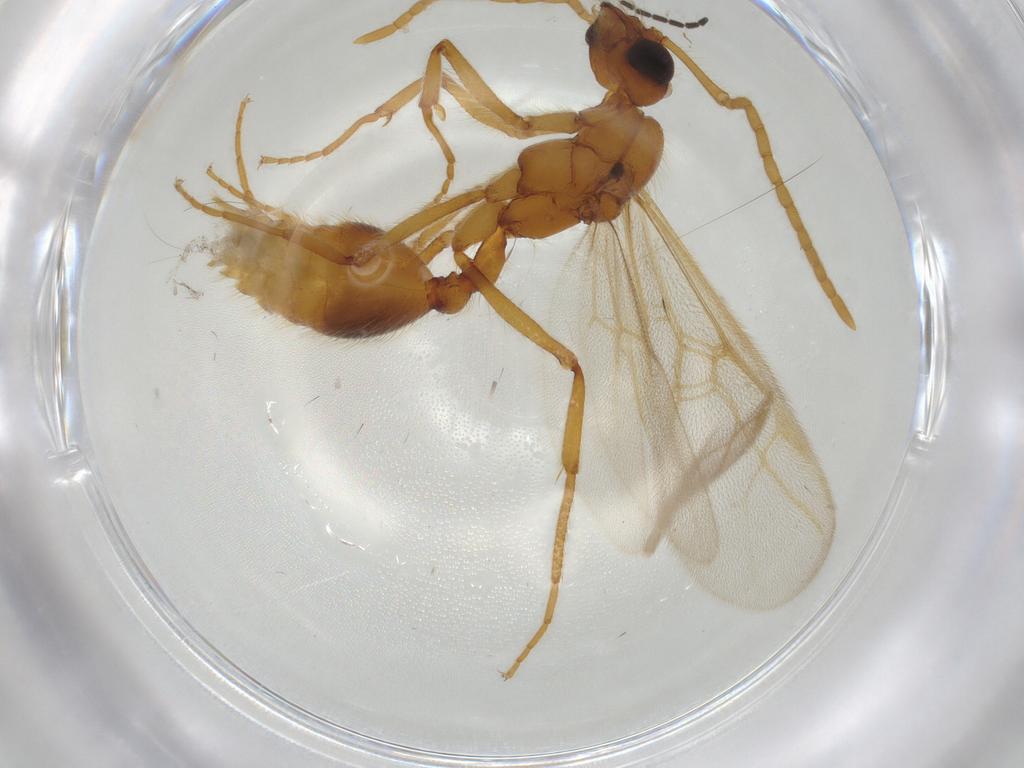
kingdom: Animalia
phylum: Arthropoda
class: Insecta
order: Hymenoptera
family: Formicidae
